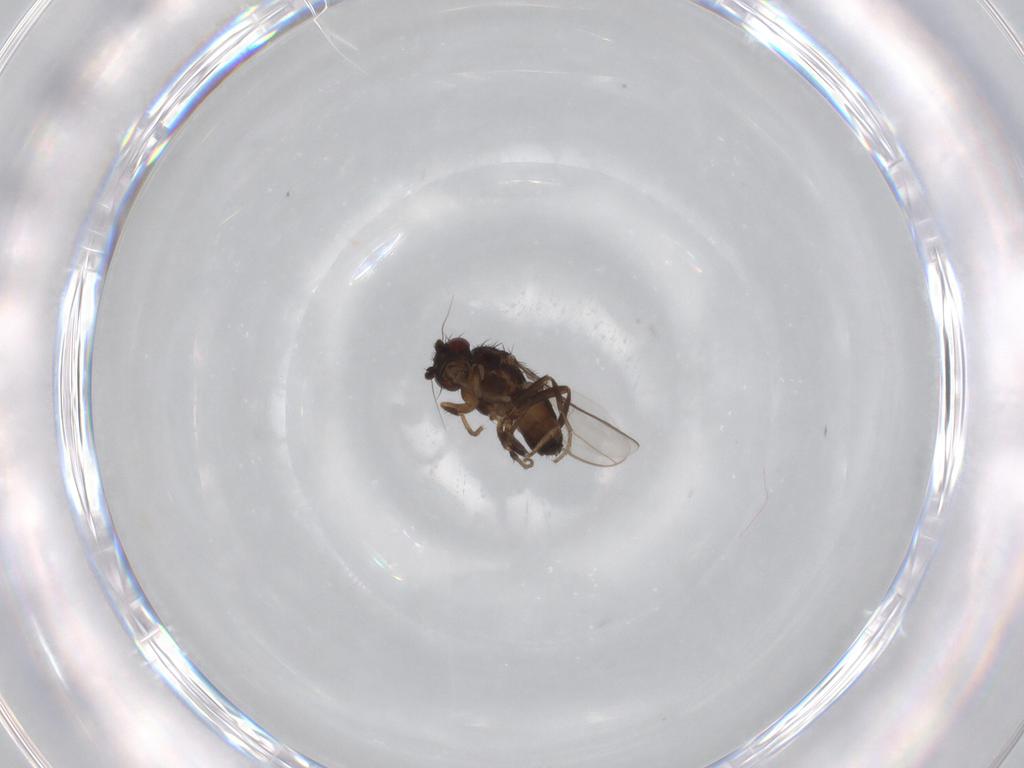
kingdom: Animalia
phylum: Arthropoda
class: Insecta
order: Diptera
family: Sphaeroceridae
